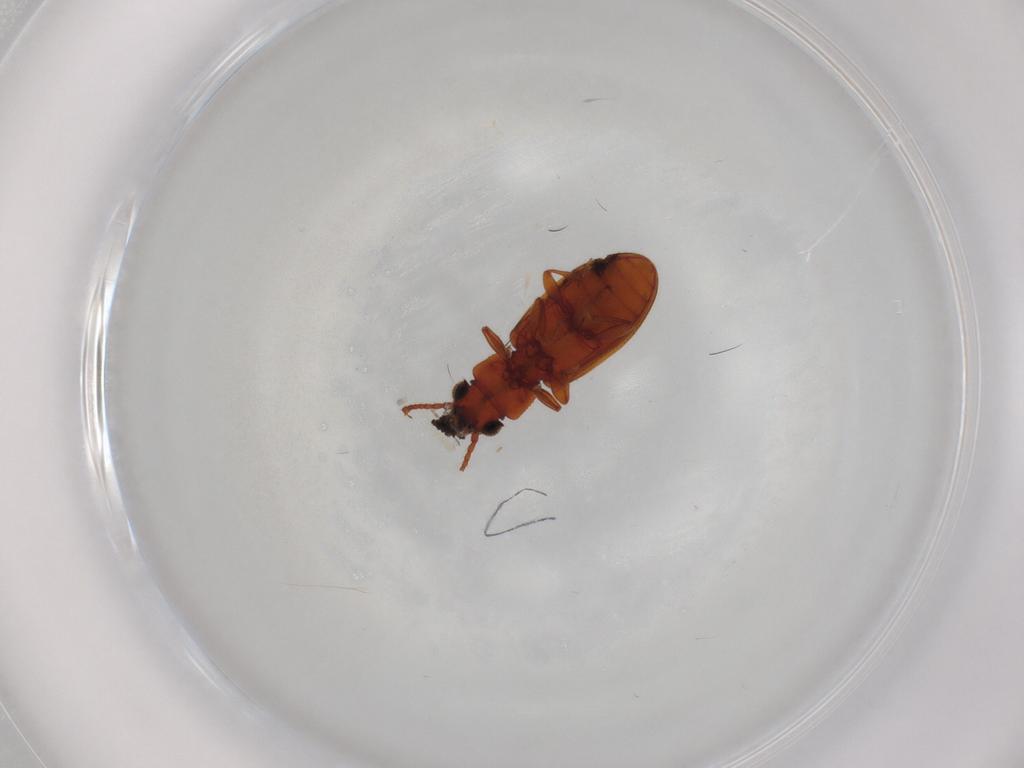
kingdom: Animalia
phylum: Arthropoda
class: Insecta
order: Coleoptera
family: Silvanidae
